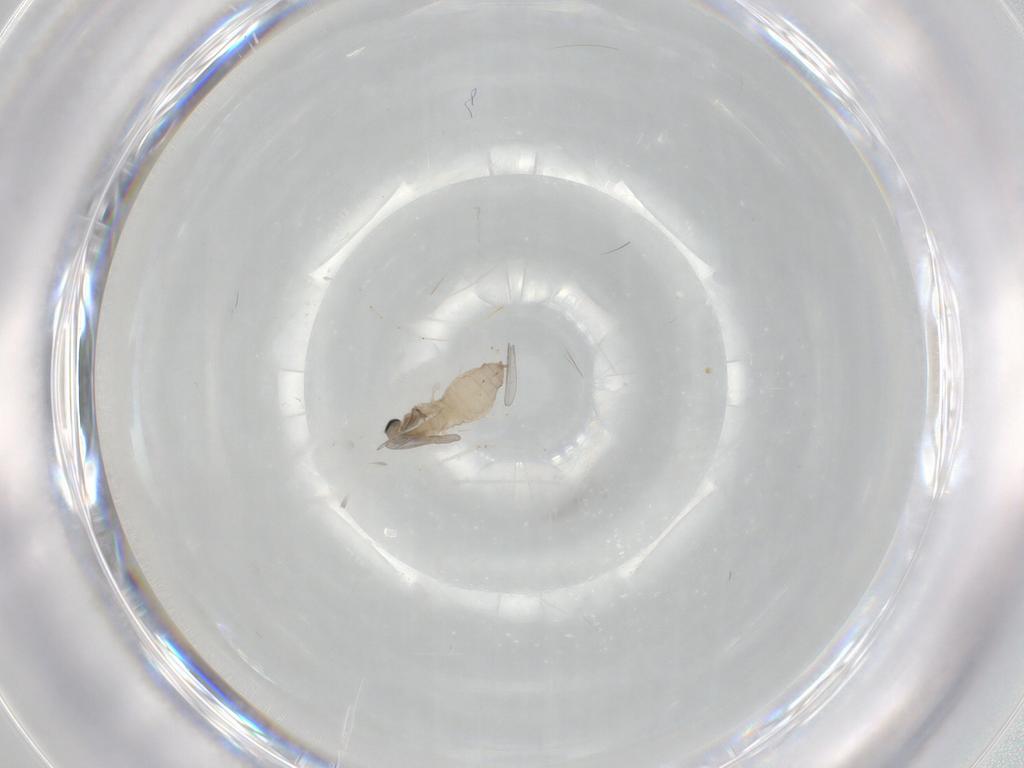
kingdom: Animalia
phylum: Arthropoda
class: Insecta
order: Diptera
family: Cecidomyiidae
